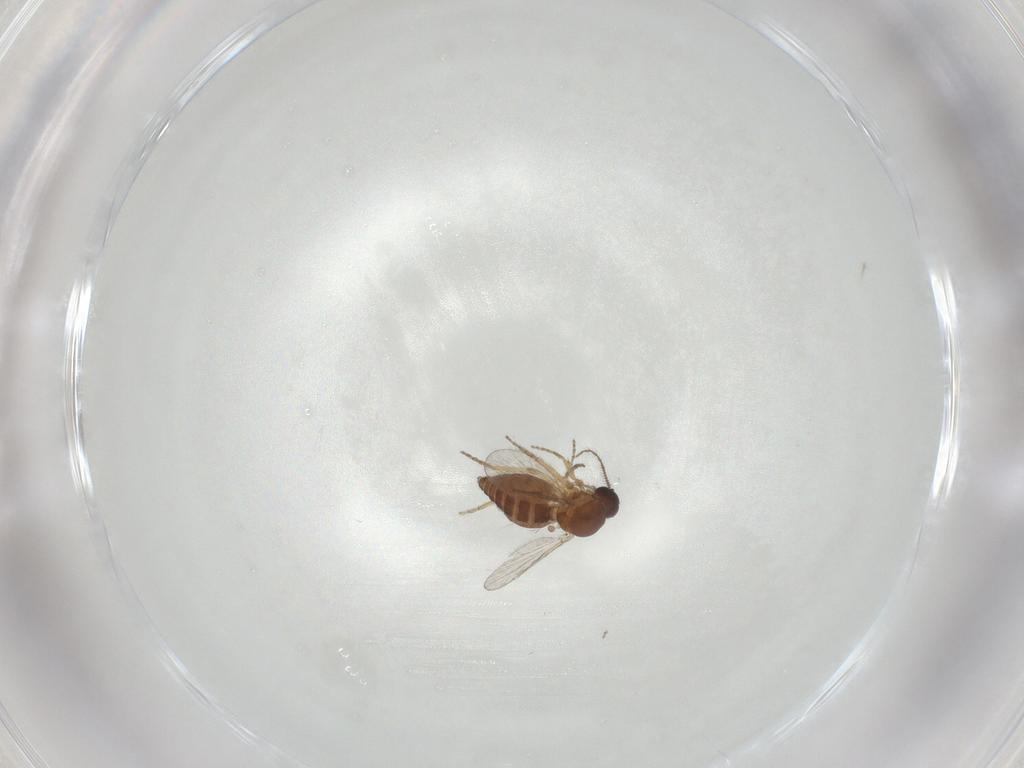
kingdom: Animalia
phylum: Arthropoda
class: Insecta
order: Diptera
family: Ceratopogonidae
